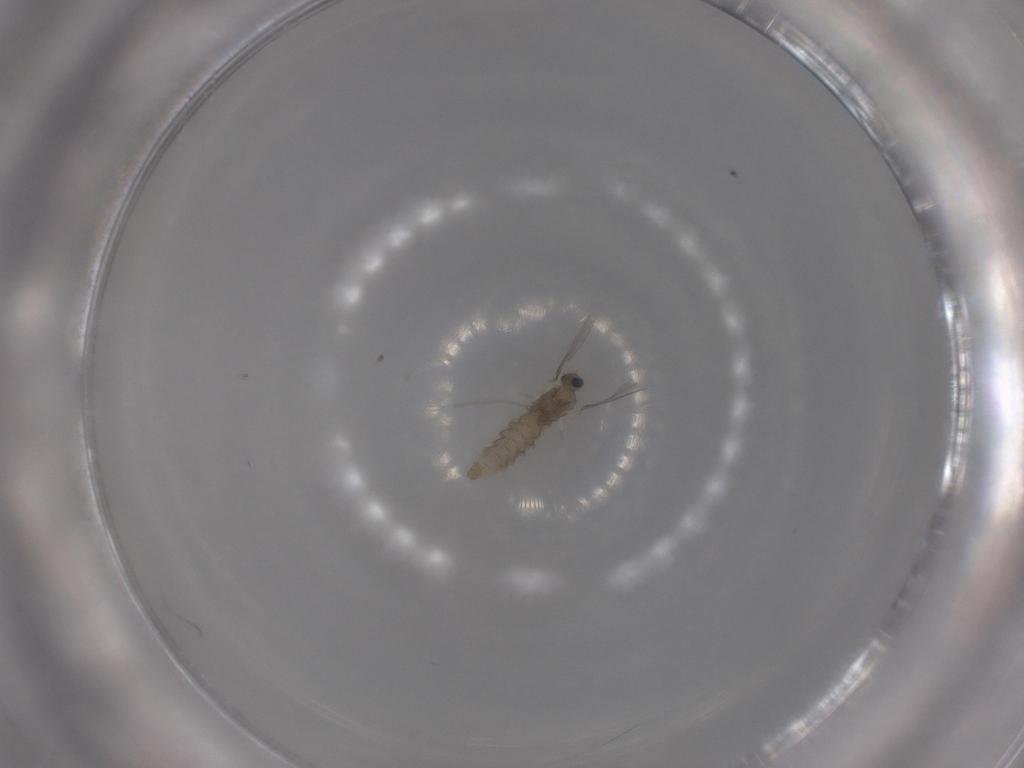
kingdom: Animalia
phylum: Arthropoda
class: Insecta
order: Diptera
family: Cecidomyiidae
